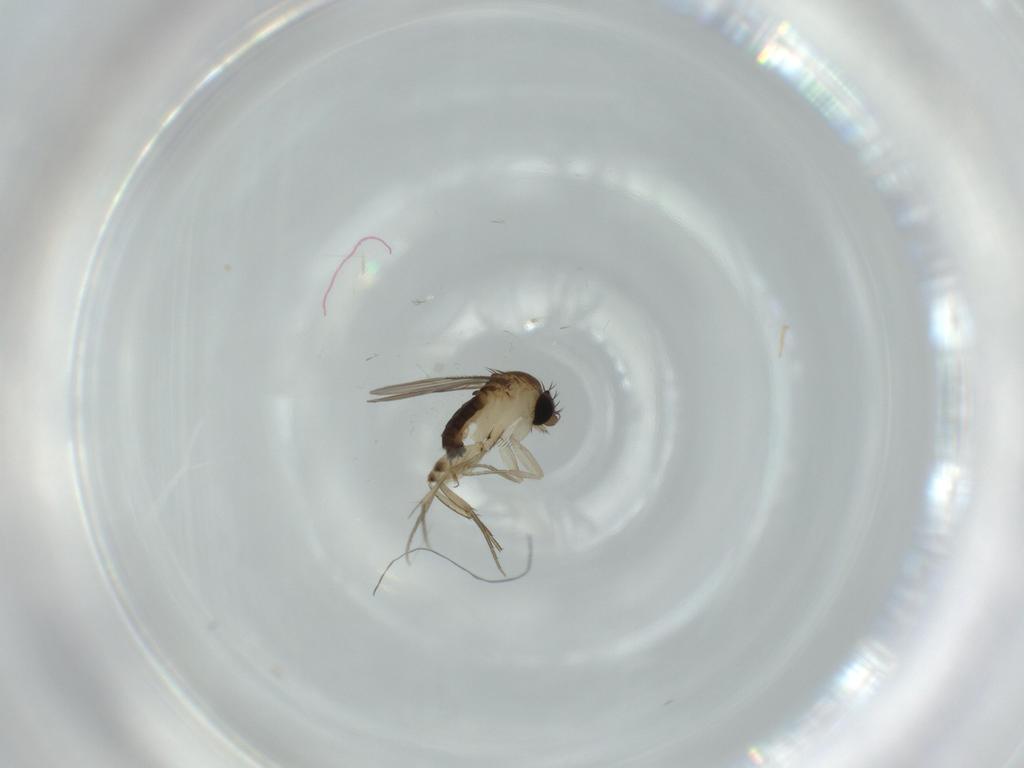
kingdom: Animalia
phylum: Arthropoda
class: Insecta
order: Diptera
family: Phoridae
